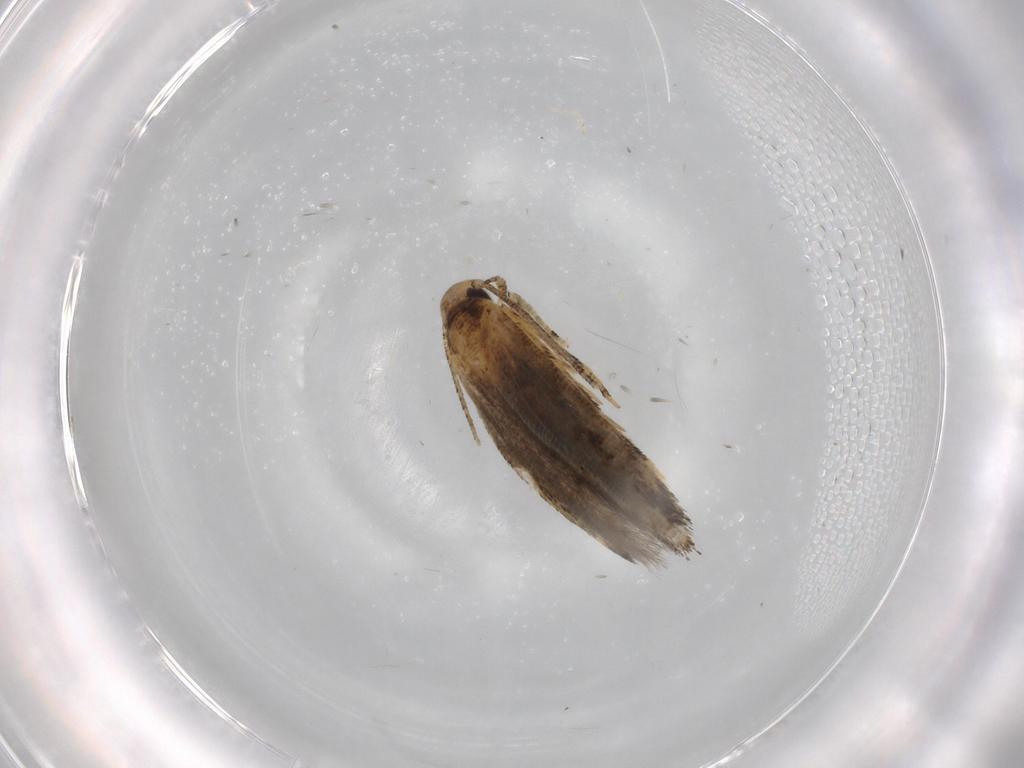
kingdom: Animalia
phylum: Arthropoda
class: Insecta
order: Lepidoptera
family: Momphidae
